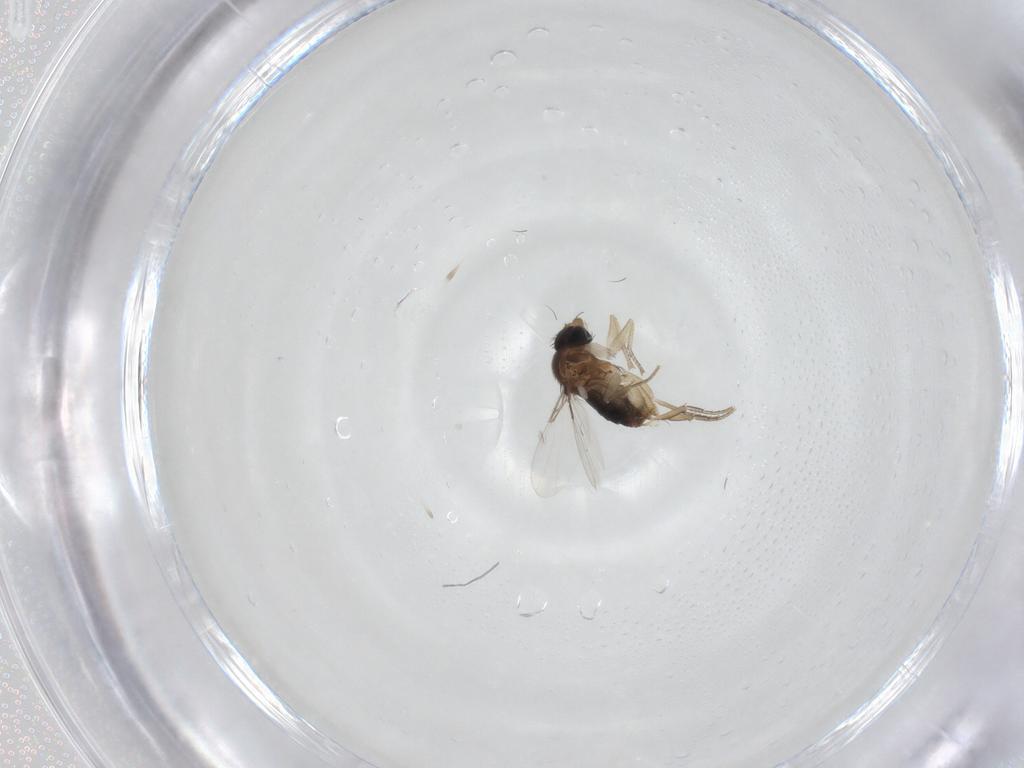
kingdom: Animalia
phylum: Arthropoda
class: Insecta
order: Diptera
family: Phoridae
